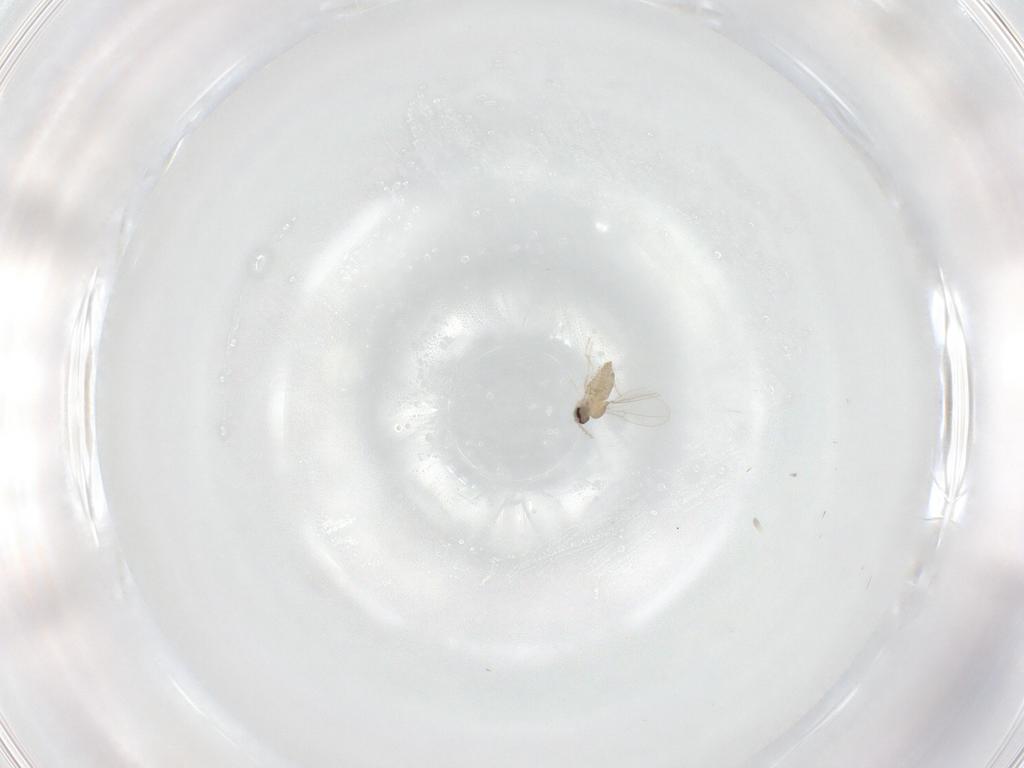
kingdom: Animalia
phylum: Arthropoda
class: Insecta
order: Diptera
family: Cecidomyiidae
